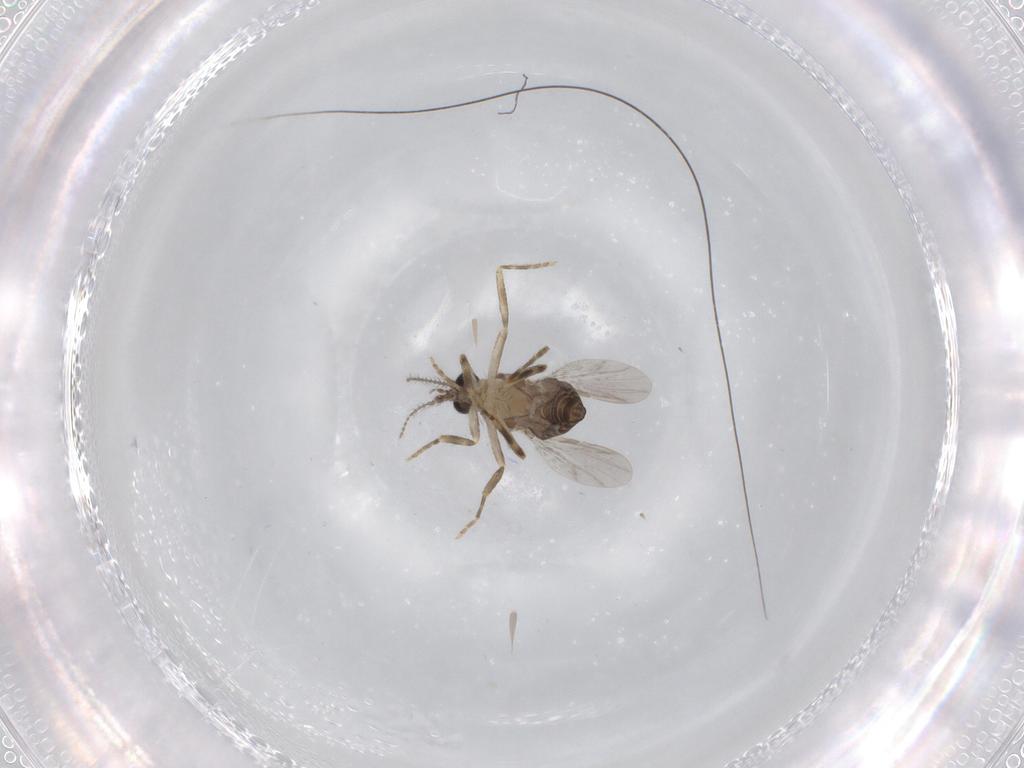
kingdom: Animalia
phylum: Arthropoda
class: Insecta
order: Diptera
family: Ceratopogonidae
